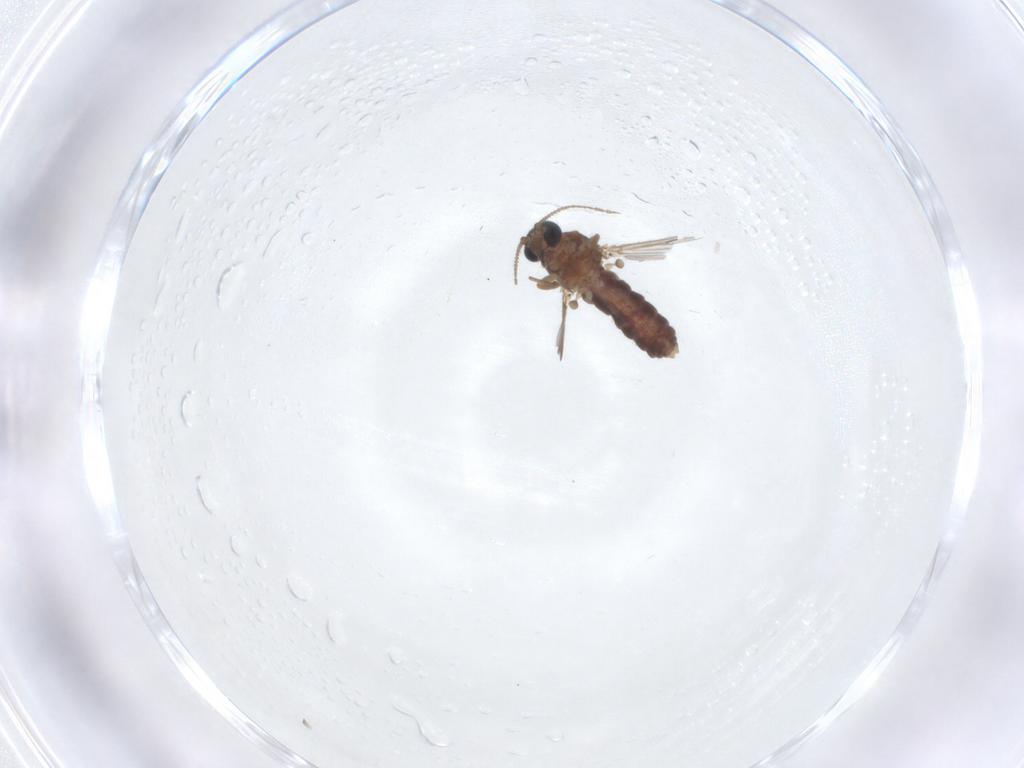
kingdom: Animalia
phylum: Arthropoda
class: Insecta
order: Diptera
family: Ceratopogonidae
